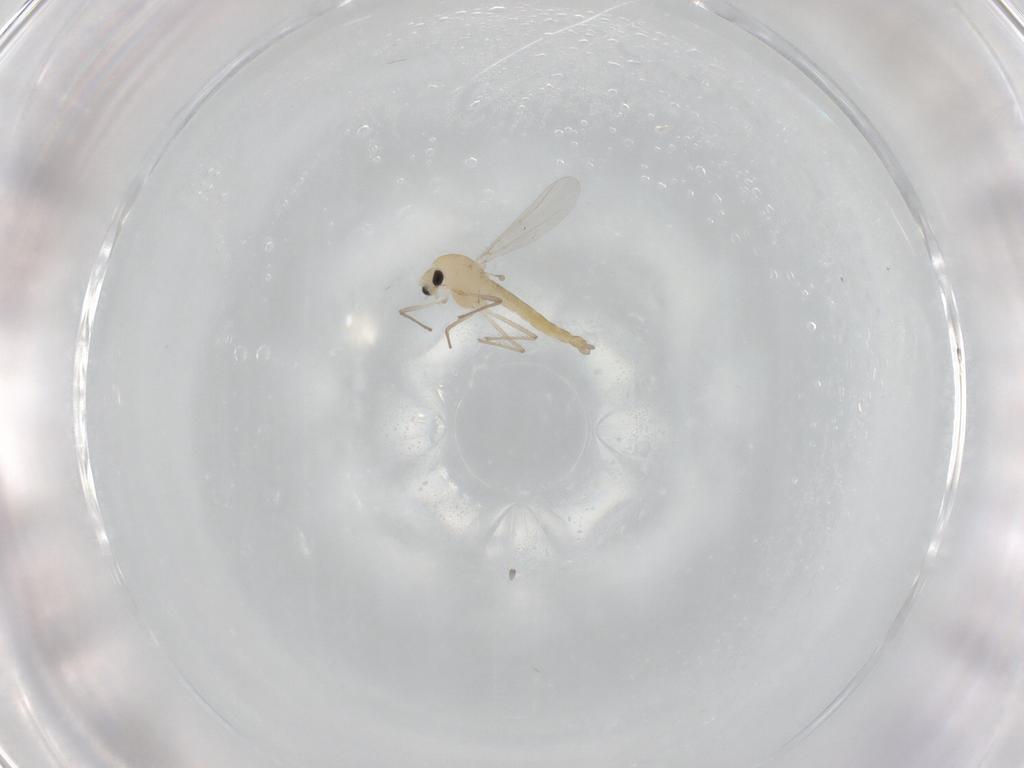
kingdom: Animalia
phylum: Arthropoda
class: Insecta
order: Diptera
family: Chironomidae
